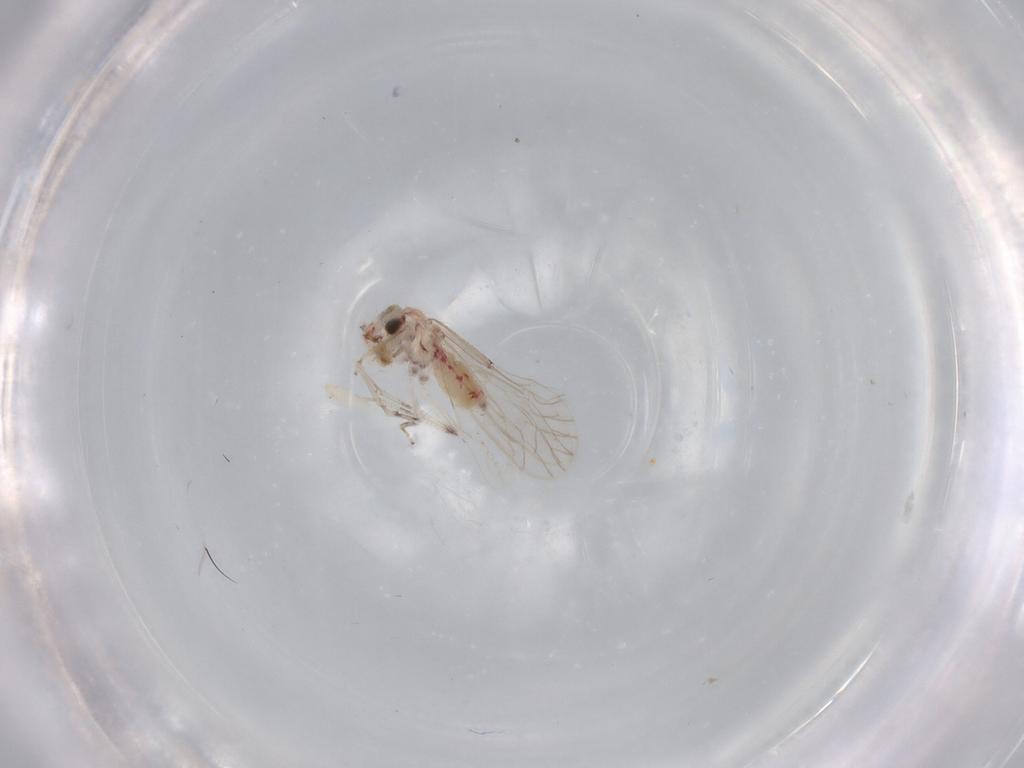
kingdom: Animalia
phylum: Arthropoda
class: Insecta
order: Psocodea
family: Caeciliusidae
